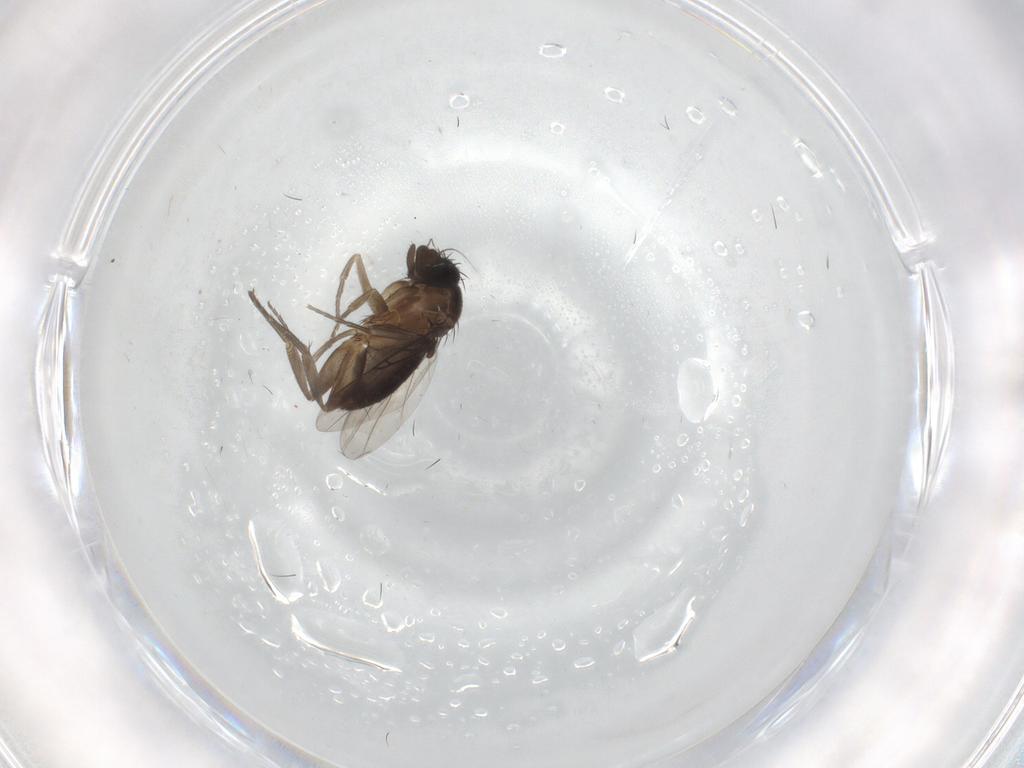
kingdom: Animalia
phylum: Arthropoda
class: Insecta
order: Diptera
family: Phoridae
